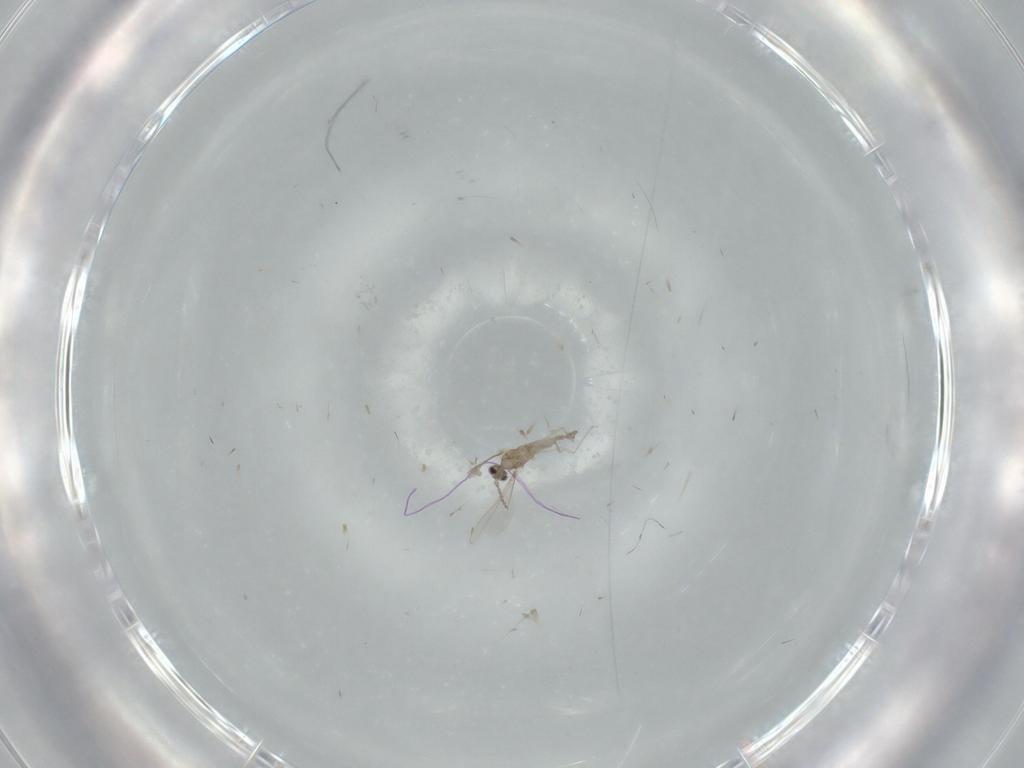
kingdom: Animalia
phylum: Arthropoda
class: Insecta
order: Diptera
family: Cecidomyiidae
